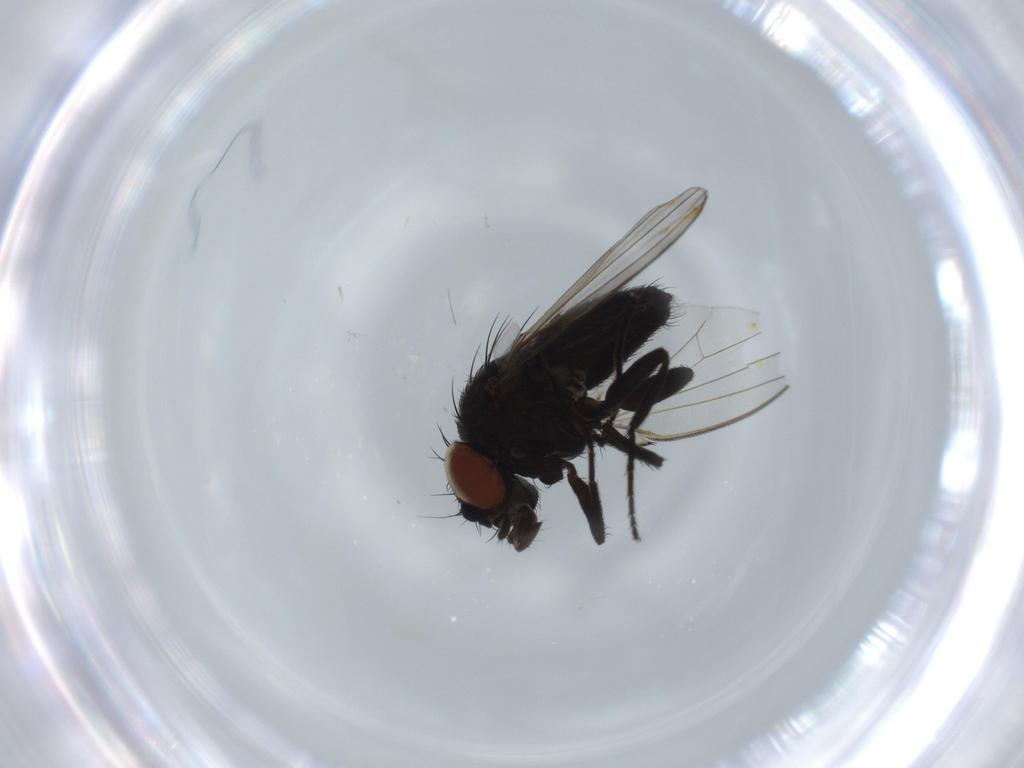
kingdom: Animalia
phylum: Arthropoda
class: Insecta
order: Diptera
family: Milichiidae
